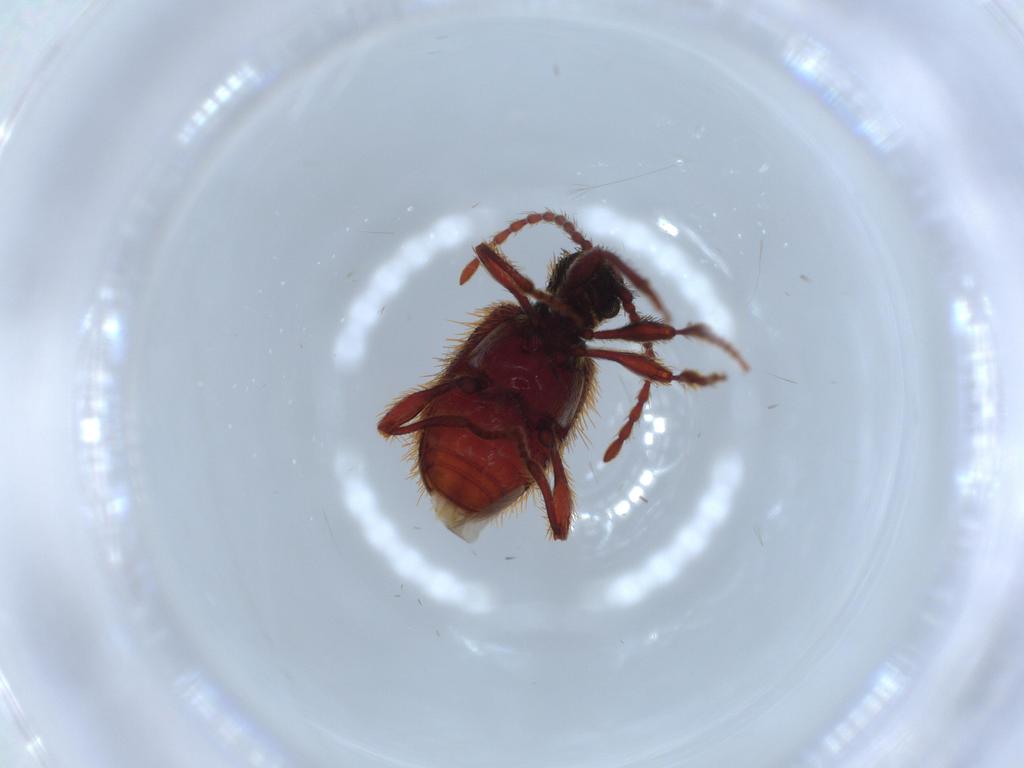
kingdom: Animalia
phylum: Arthropoda
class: Insecta
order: Coleoptera
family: Ptinidae
